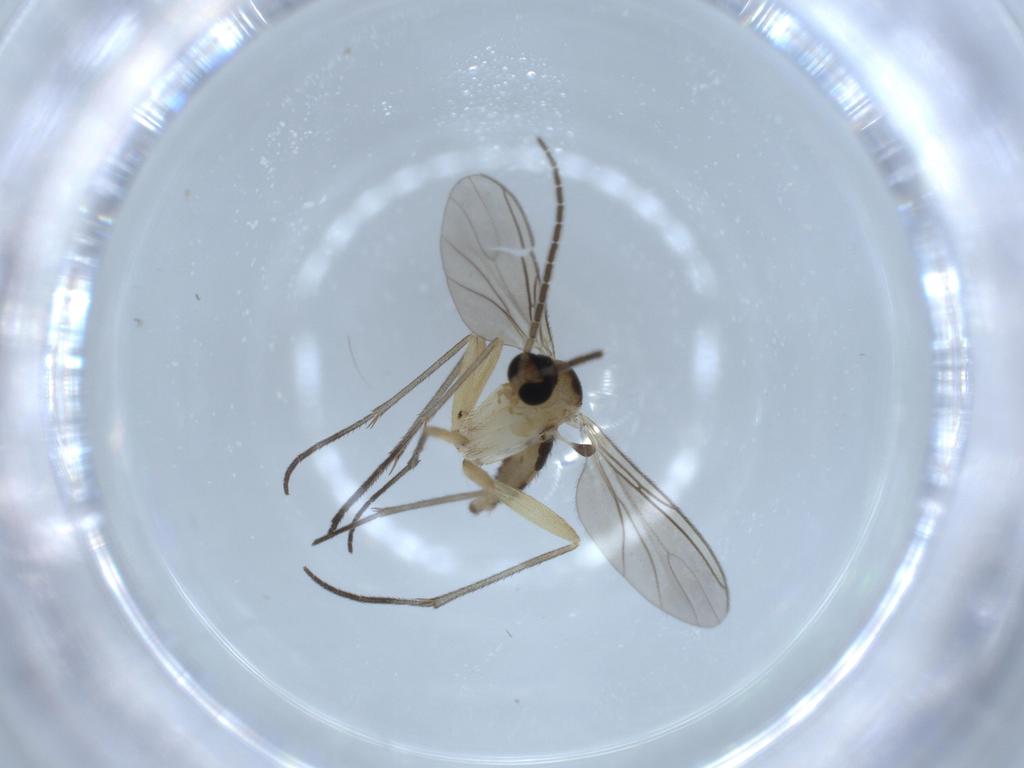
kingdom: Animalia
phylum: Arthropoda
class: Insecta
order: Diptera
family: Sciaridae
